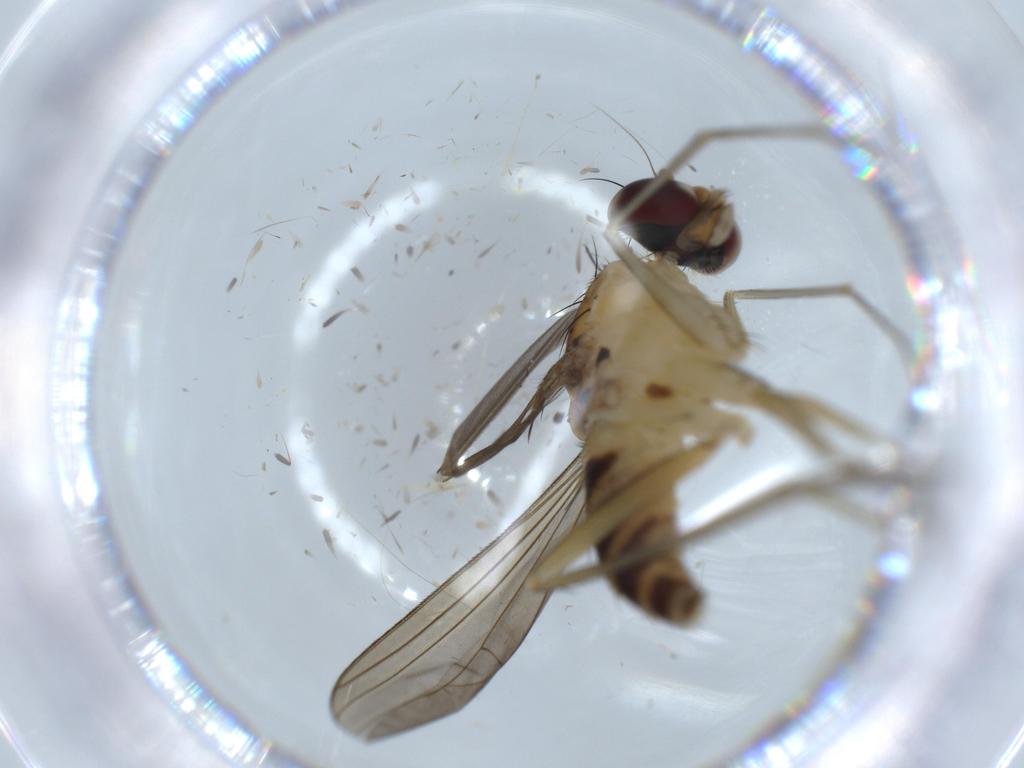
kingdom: Animalia
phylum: Arthropoda
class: Insecta
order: Diptera
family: Dolichopodidae
